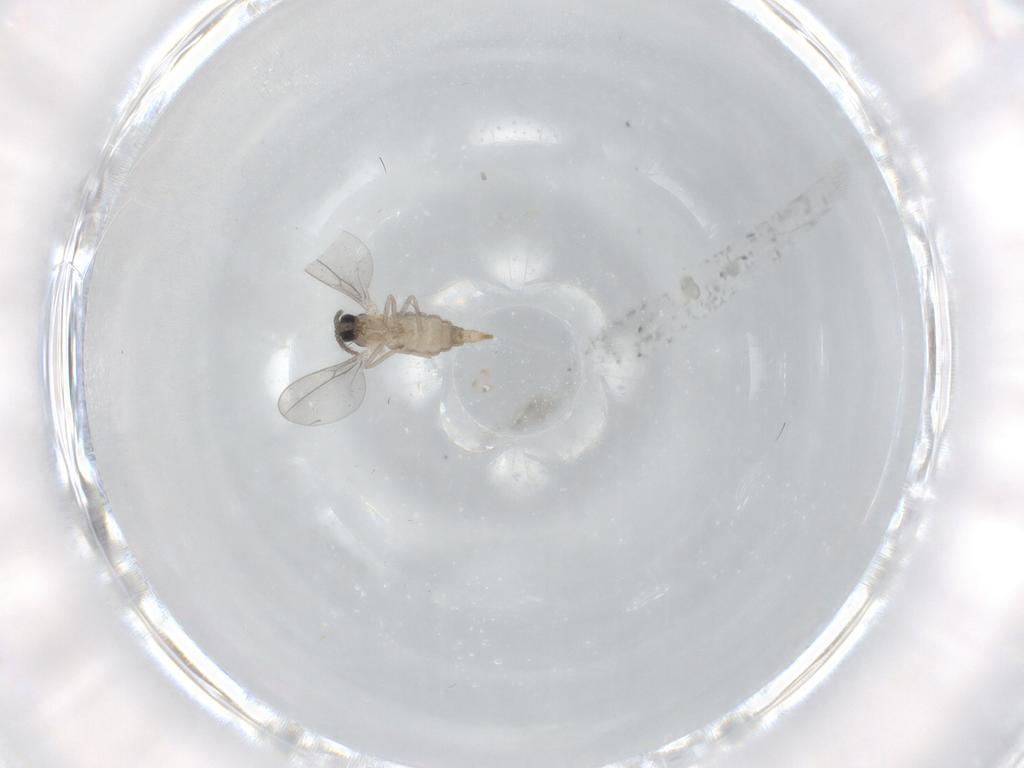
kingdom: Animalia
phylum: Arthropoda
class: Insecta
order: Diptera
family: Cecidomyiidae
